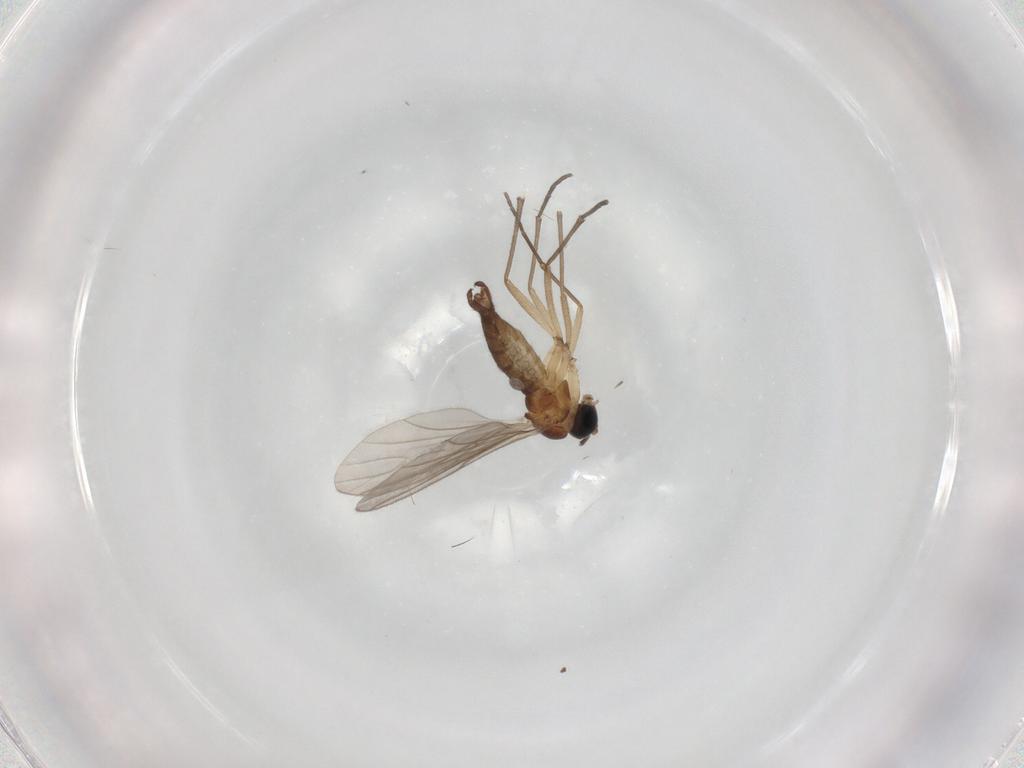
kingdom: Animalia
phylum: Arthropoda
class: Insecta
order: Diptera
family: Sciaridae
